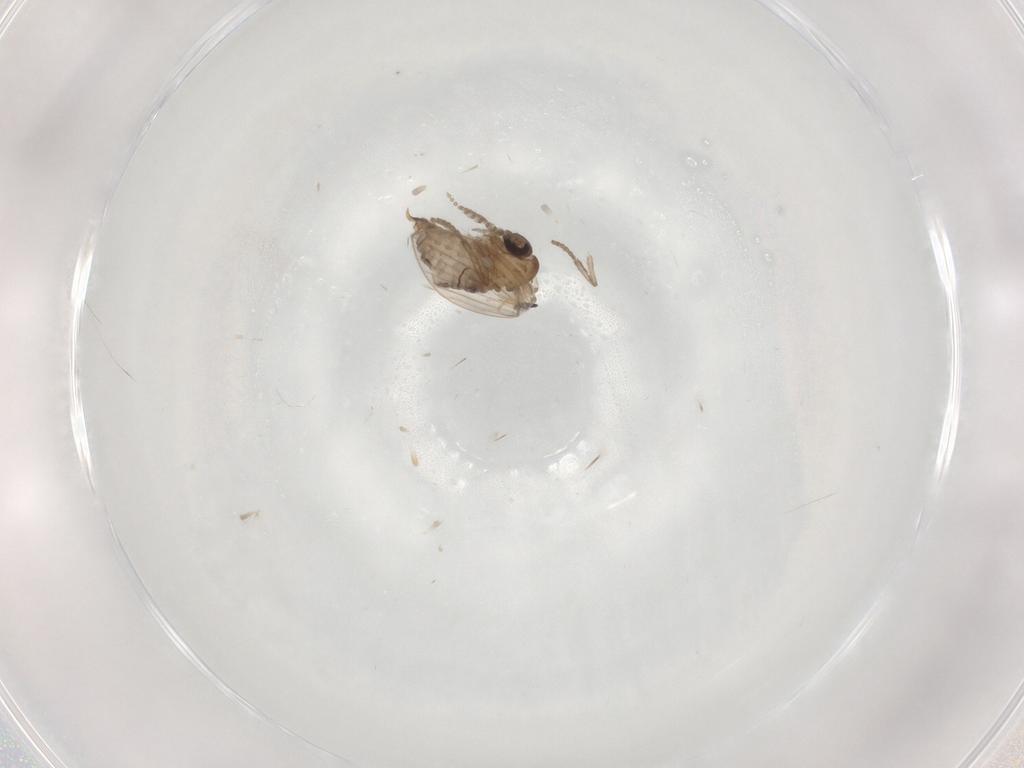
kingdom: Animalia
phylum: Arthropoda
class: Insecta
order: Diptera
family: Psychodidae
